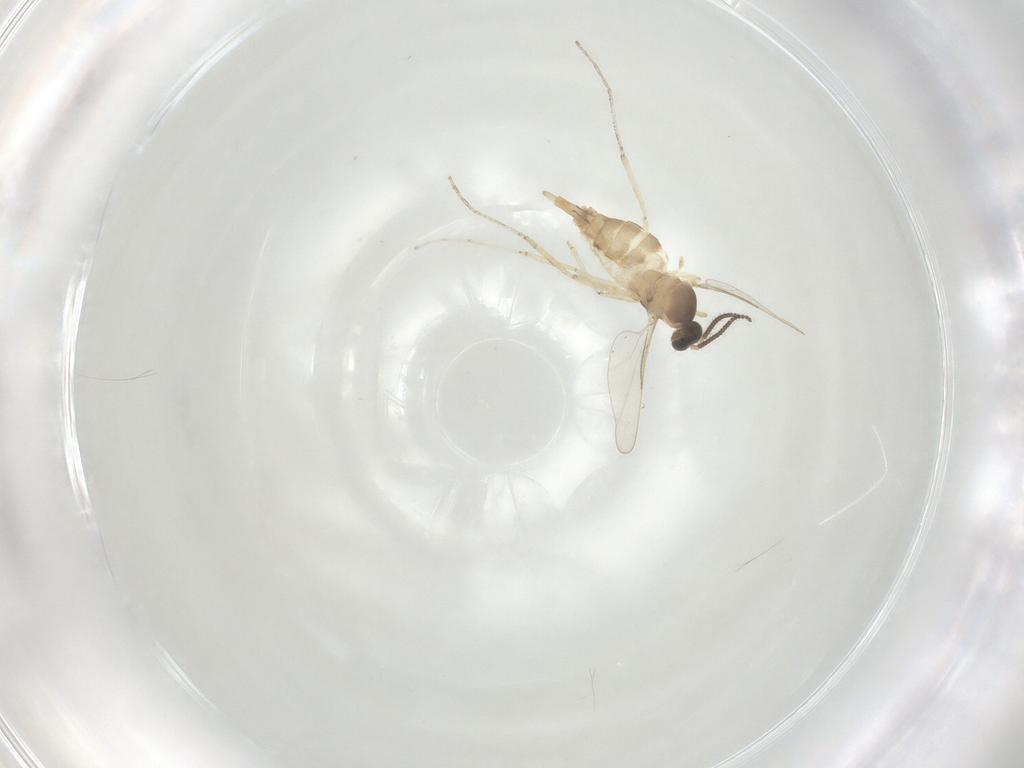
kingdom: Animalia
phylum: Arthropoda
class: Insecta
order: Diptera
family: Cecidomyiidae
